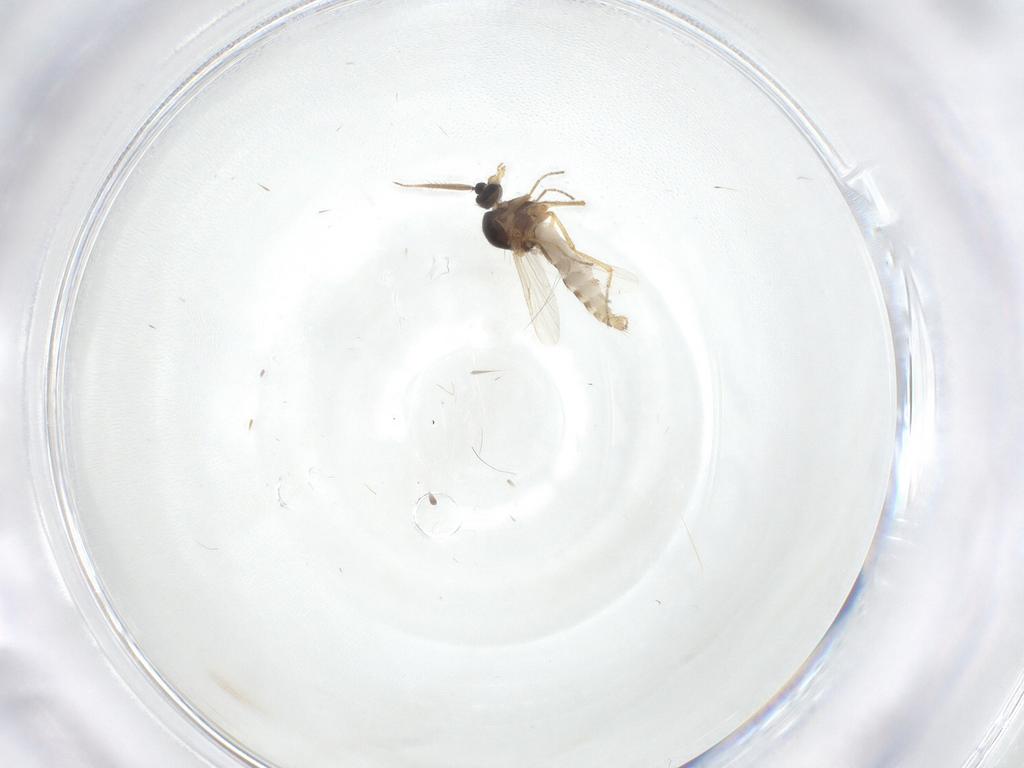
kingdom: Animalia
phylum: Arthropoda
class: Insecta
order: Diptera
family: Ceratopogonidae
